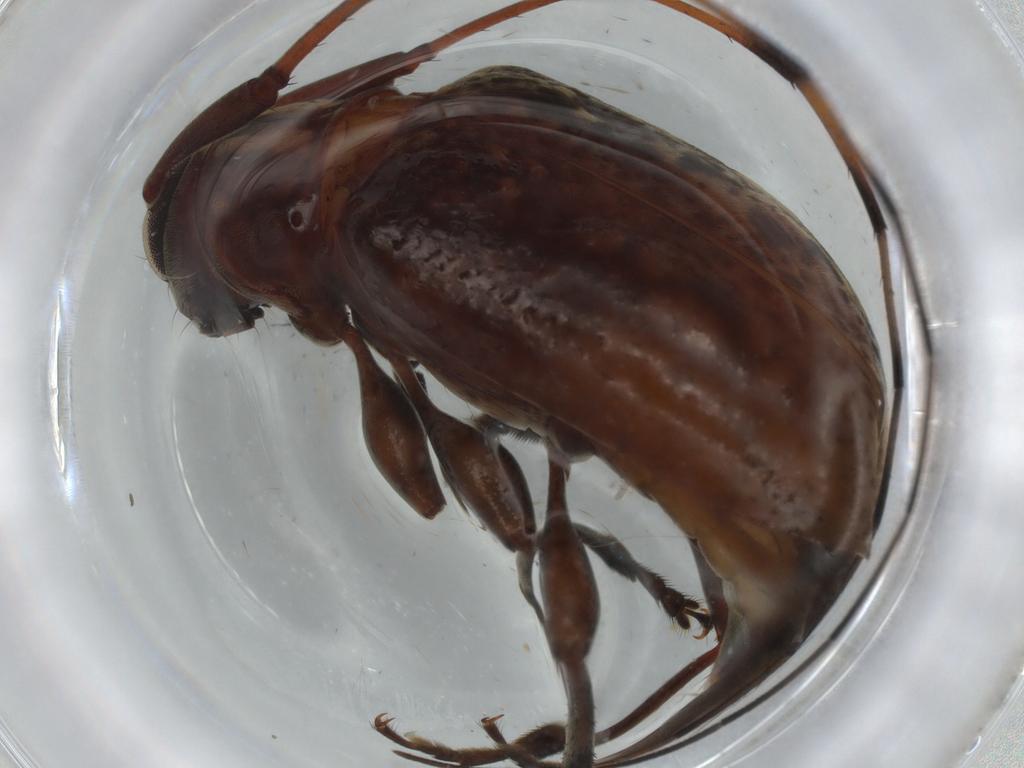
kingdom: Animalia
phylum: Arthropoda
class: Insecta
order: Coleoptera
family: Cerambycidae
